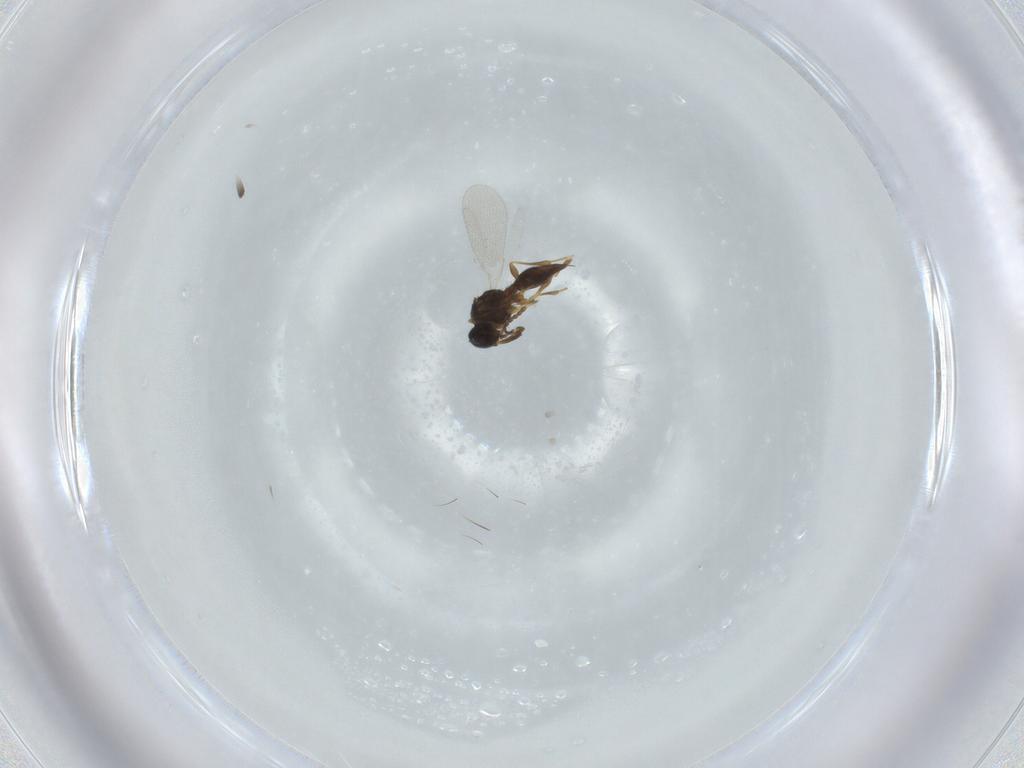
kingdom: Animalia
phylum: Arthropoda
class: Insecta
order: Diptera
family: Mythicomyiidae
